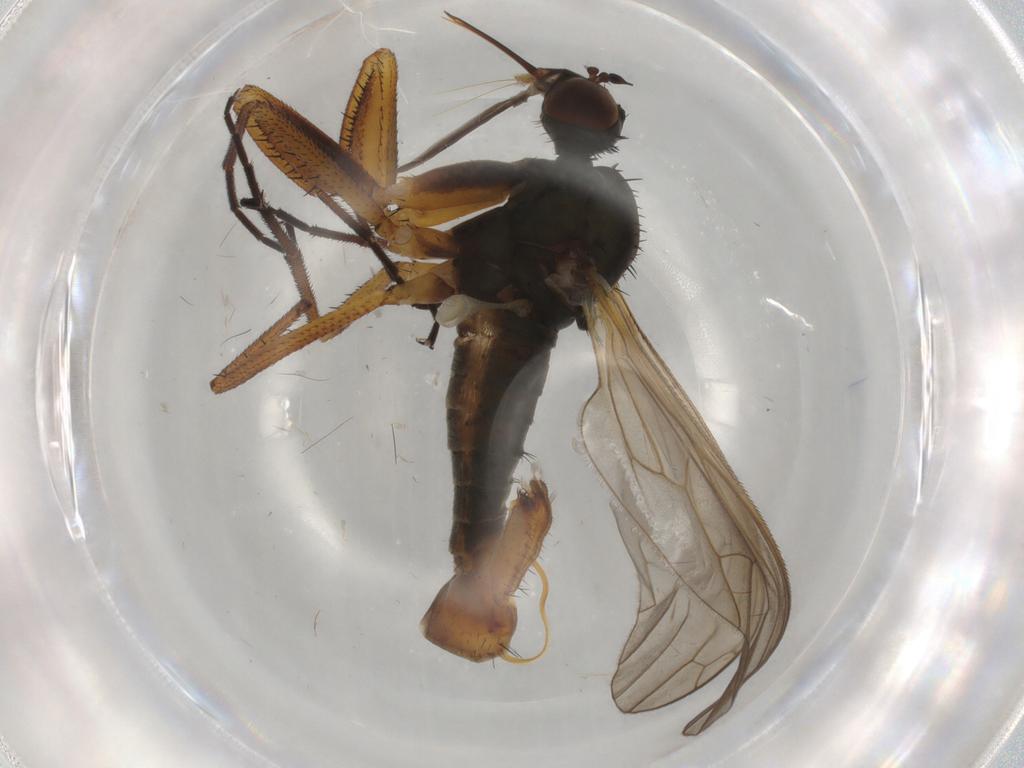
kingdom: Animalia
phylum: Arthropoda
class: Insecta
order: Diptera
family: Empididae
